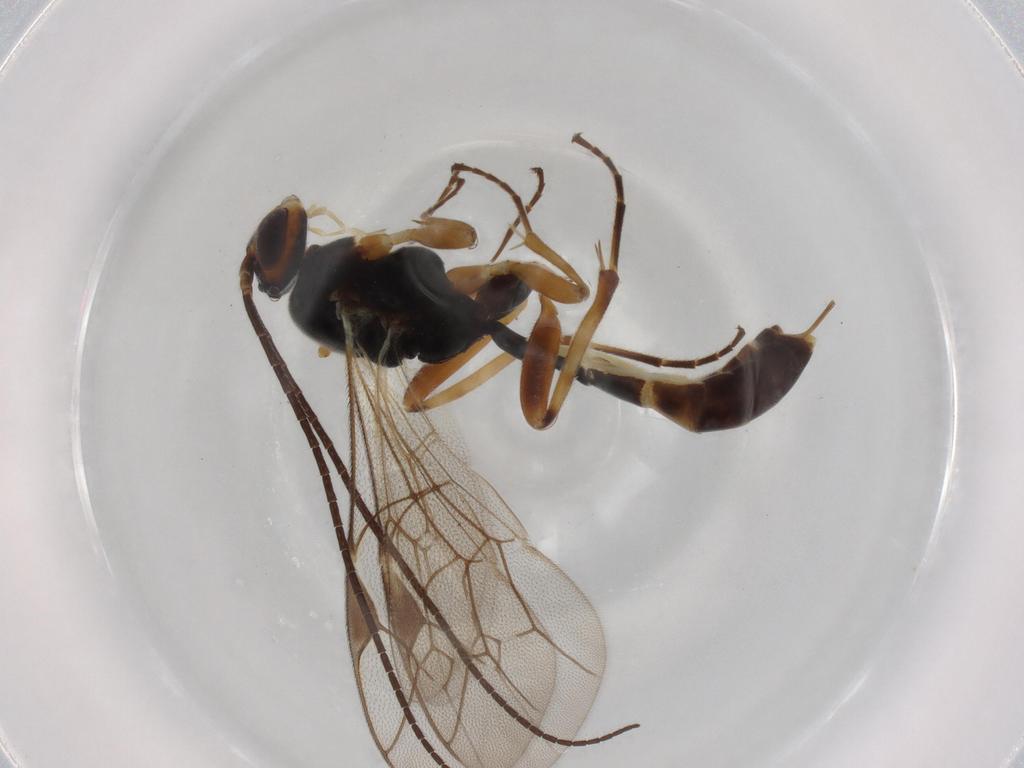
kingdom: Animalia
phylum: Arthropoda
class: Insecta
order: Hymenoptera
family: Ichneumonidae
